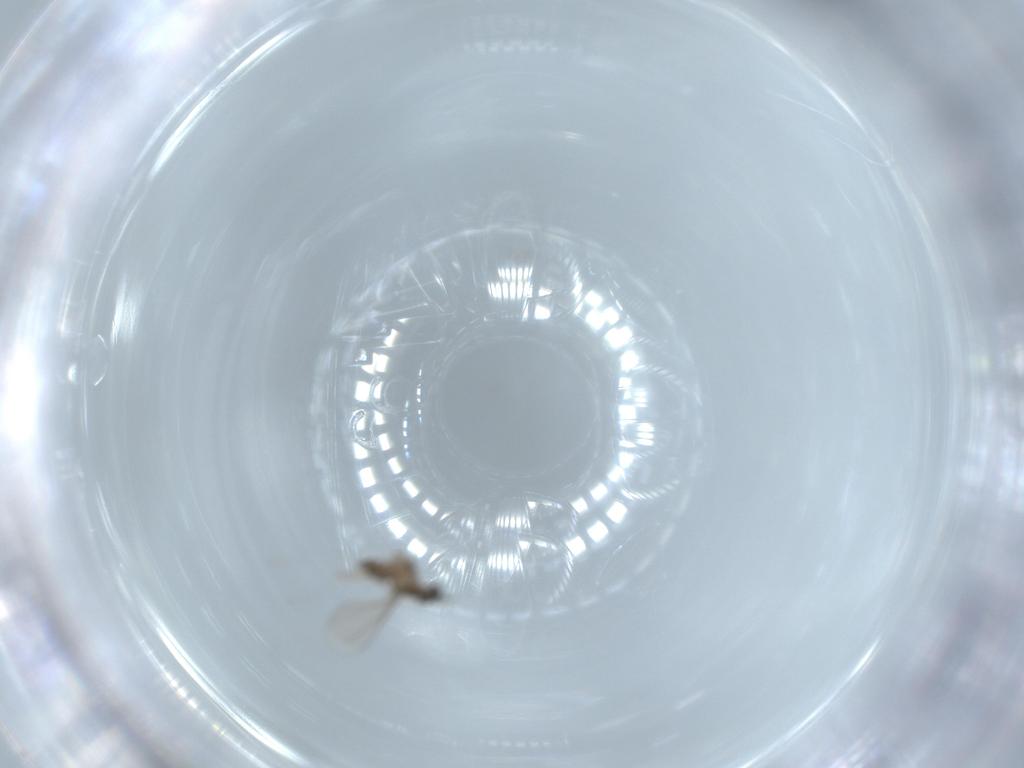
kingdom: Animalia
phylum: Arthropoda
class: Insecta
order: Diptera
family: Cecidomyiidae
